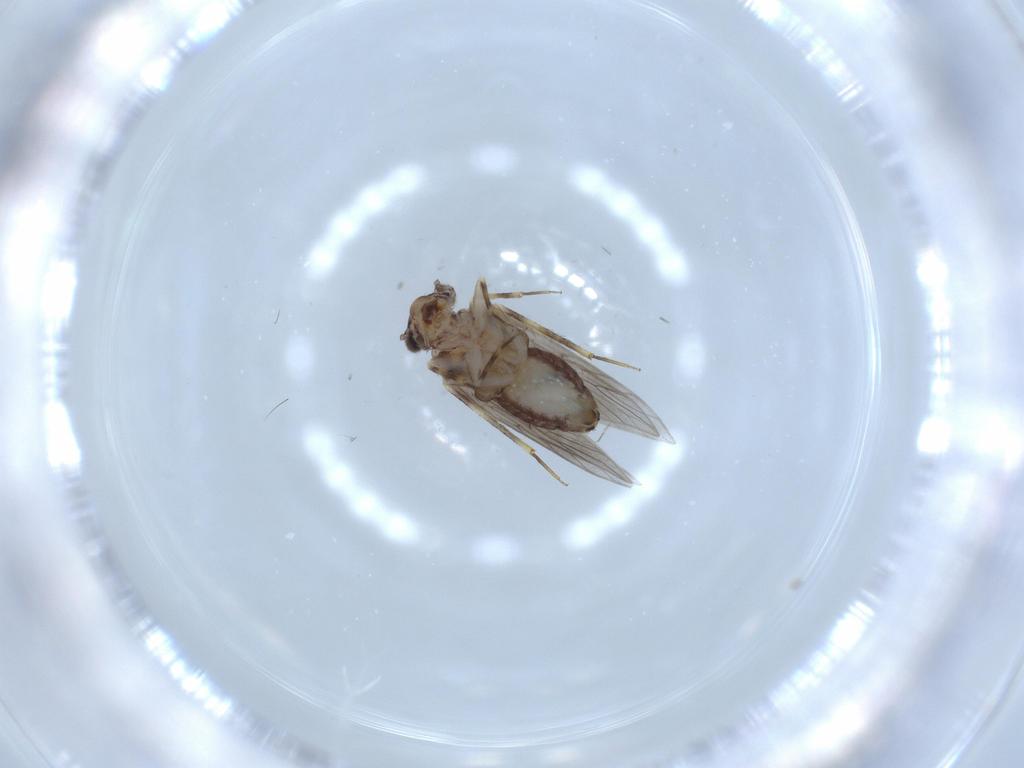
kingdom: Animalia
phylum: Arthropoda
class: Insecta
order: Psocodea
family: Lepidopsocidae
